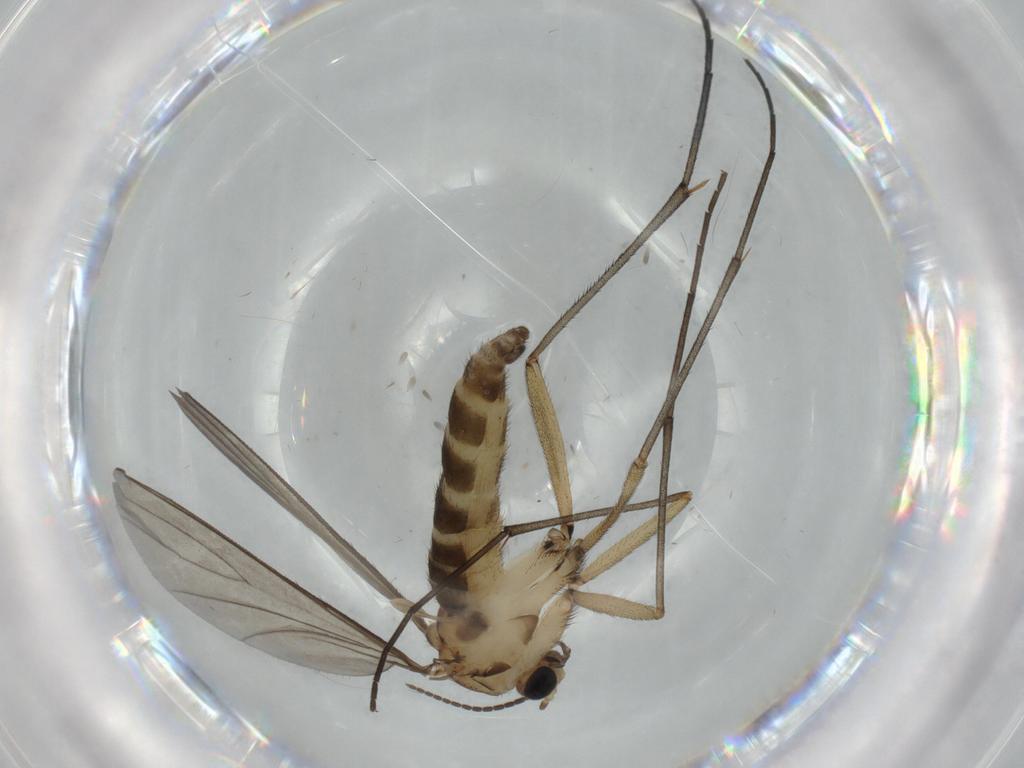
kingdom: Animalia
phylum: Arthropoda
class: Insecta
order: Diptera
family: Sciaridae
